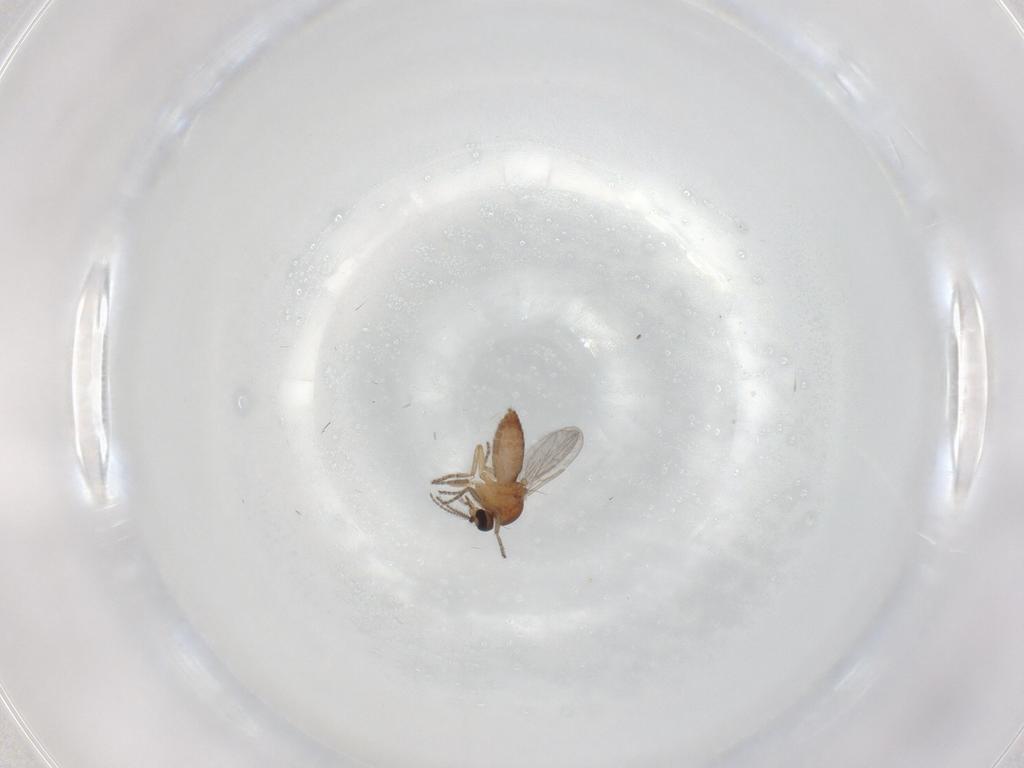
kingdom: Animalia
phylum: Arthropoda
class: Insecta
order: Diptera
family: Ceratopogonidae
